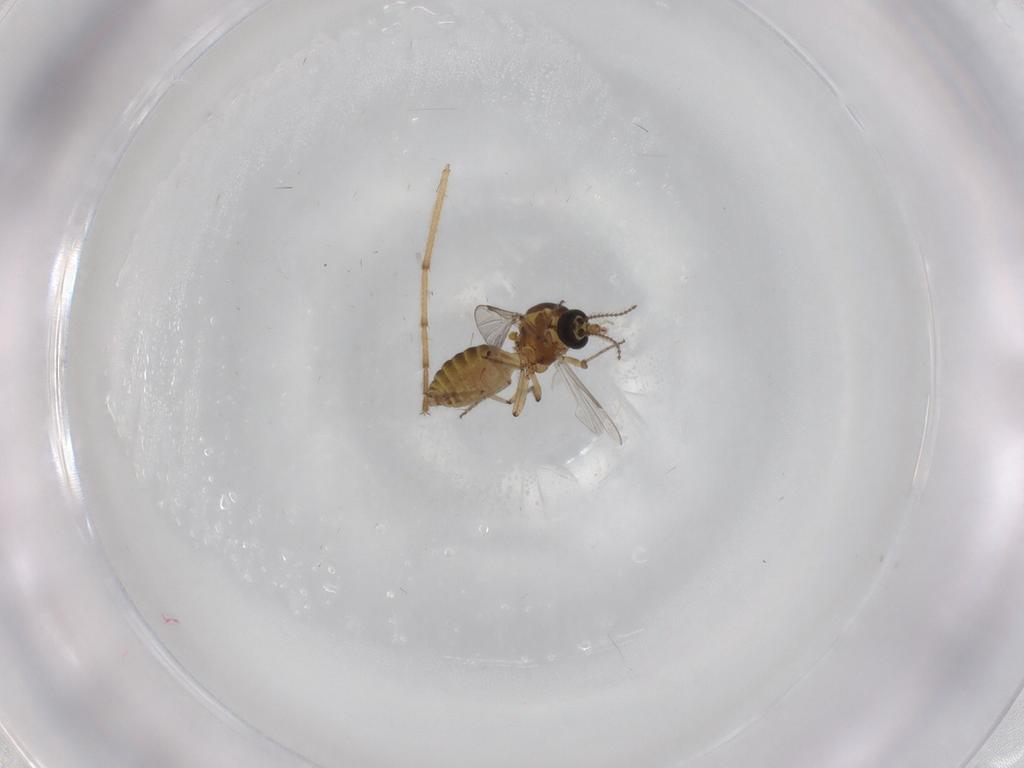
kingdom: Animalia
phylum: Arthropoda
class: Insecta
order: Diptera
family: Ceratopogonidae
